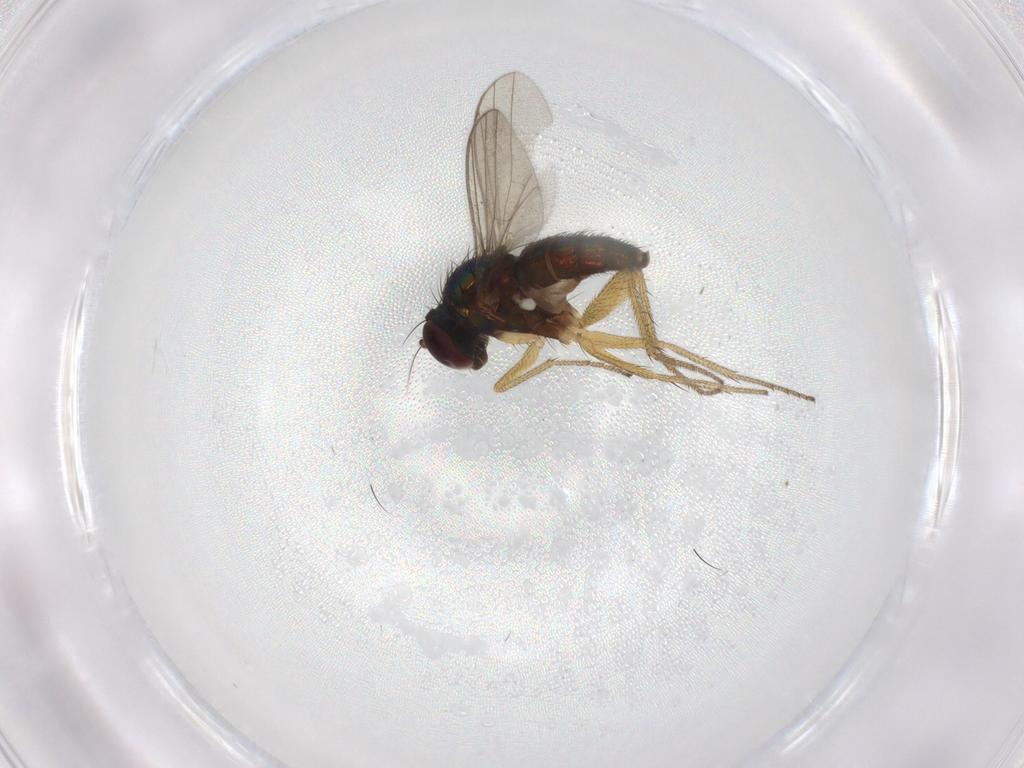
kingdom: Animalia
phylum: Arthropoda
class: Insecta
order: Diptera
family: Dolichopodidae
